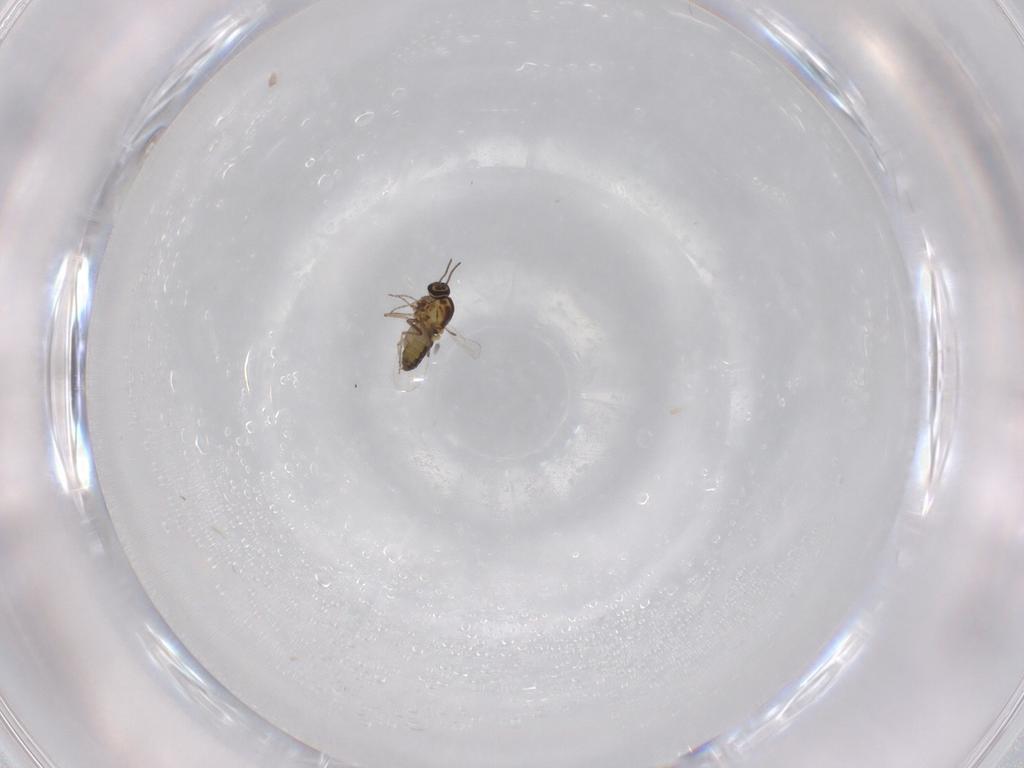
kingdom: Animalia
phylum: Arthropoda
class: Insecta
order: Diptera
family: Ceratopogonidae
